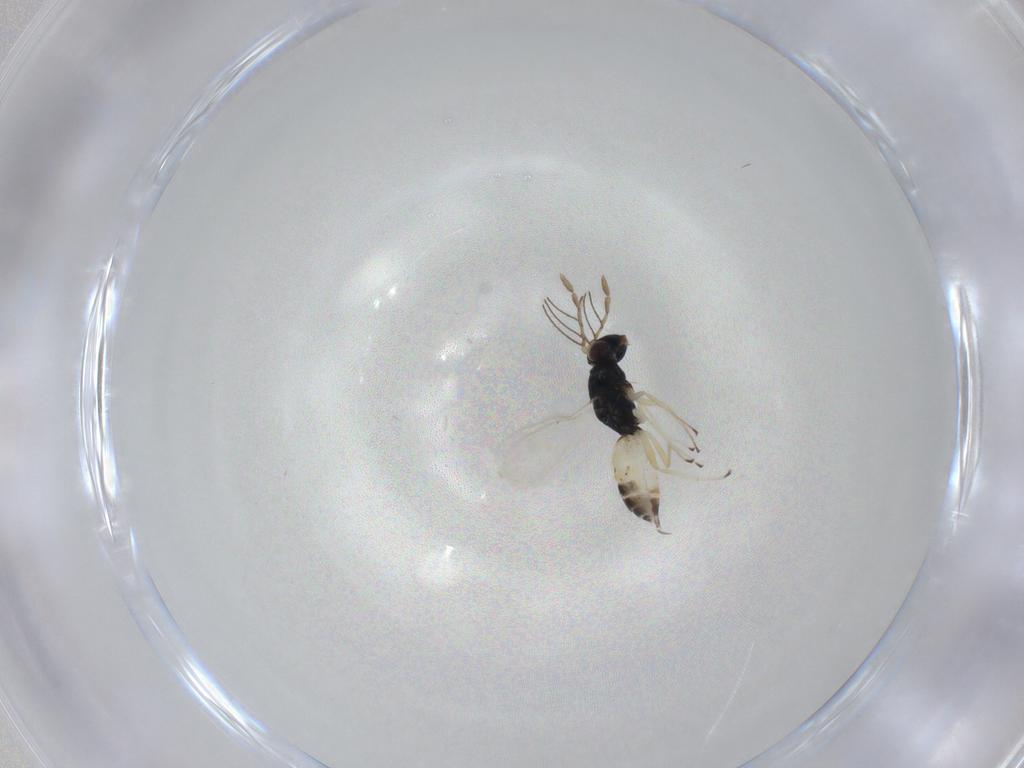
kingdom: Animalia
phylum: Arthropoda
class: Insecta
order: Hymenoptera
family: Eulophidae
